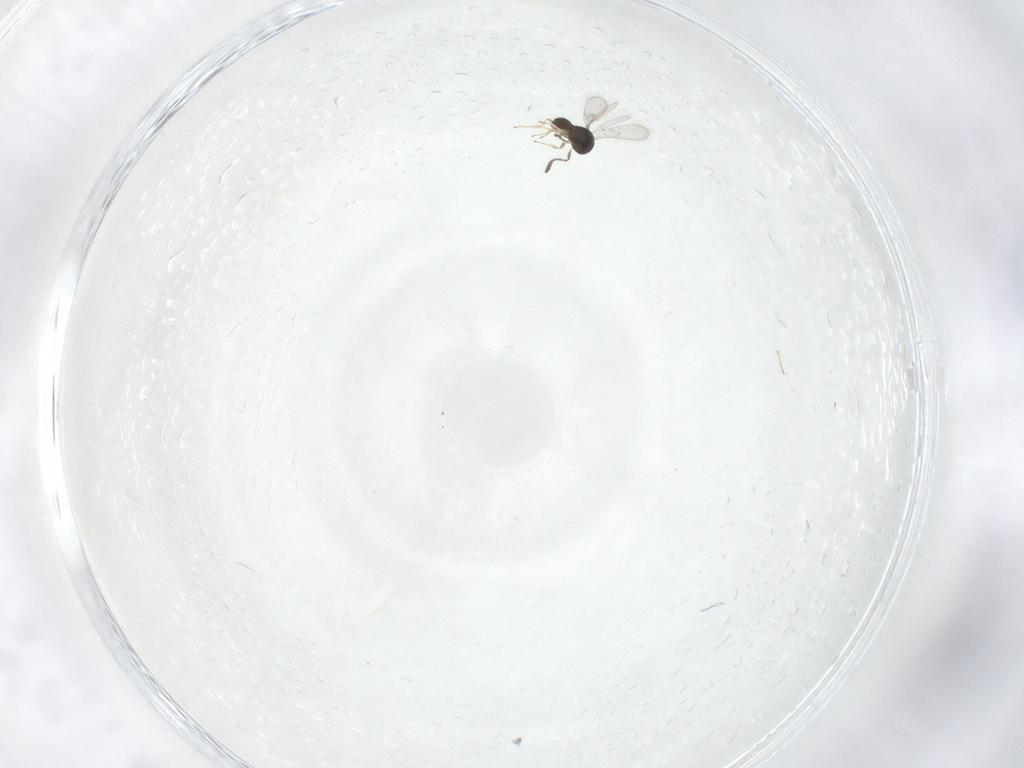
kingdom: Animalia
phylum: Arthropoda
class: Insecta
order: Hymenoptera
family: Scelionidae
